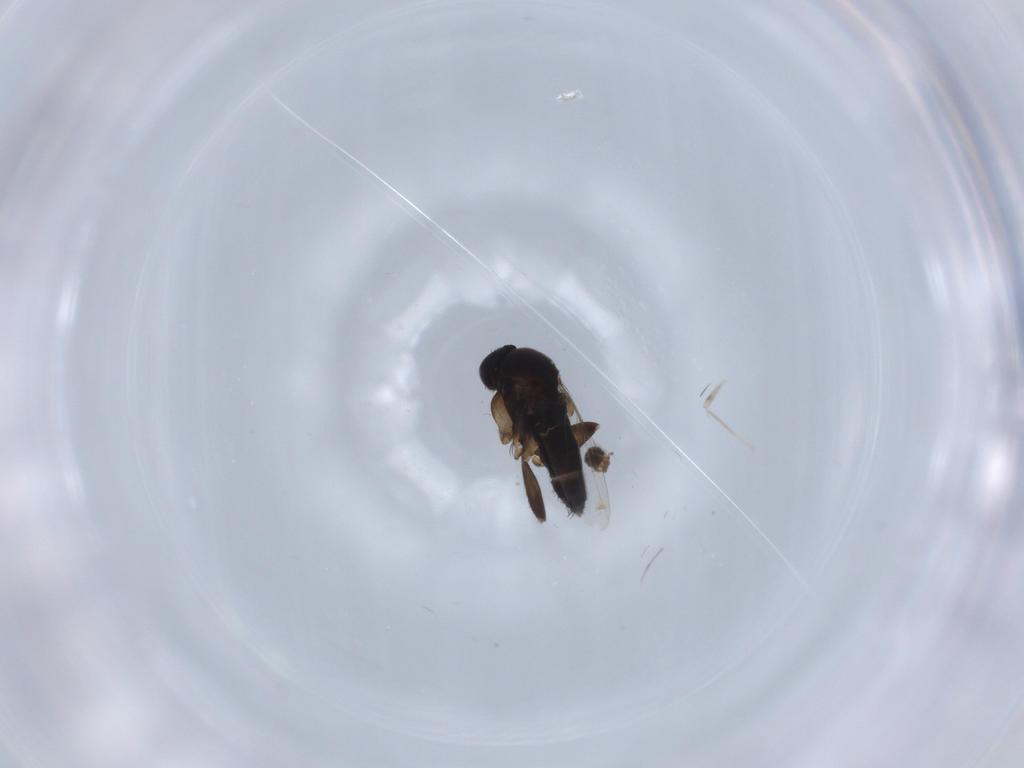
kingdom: Animalia
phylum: Arthropoda
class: Insecta
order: Diptera
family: Phoridae
